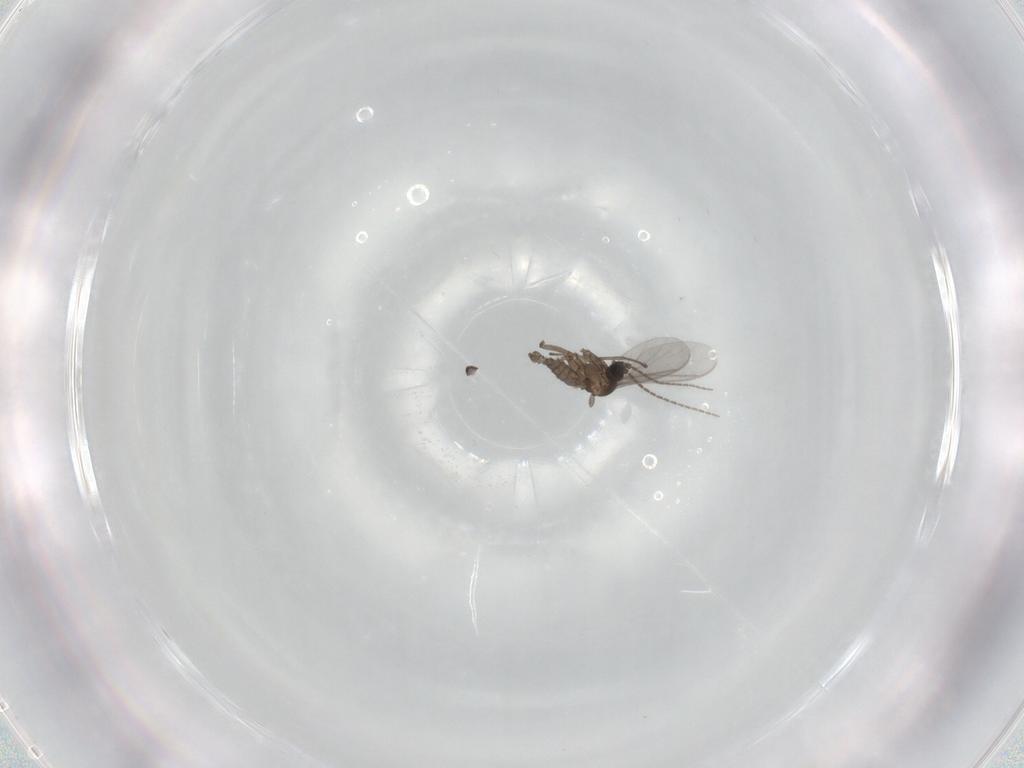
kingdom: Animalia
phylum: Arthropoda
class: Insecta
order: Diptera
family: Sciaridae
